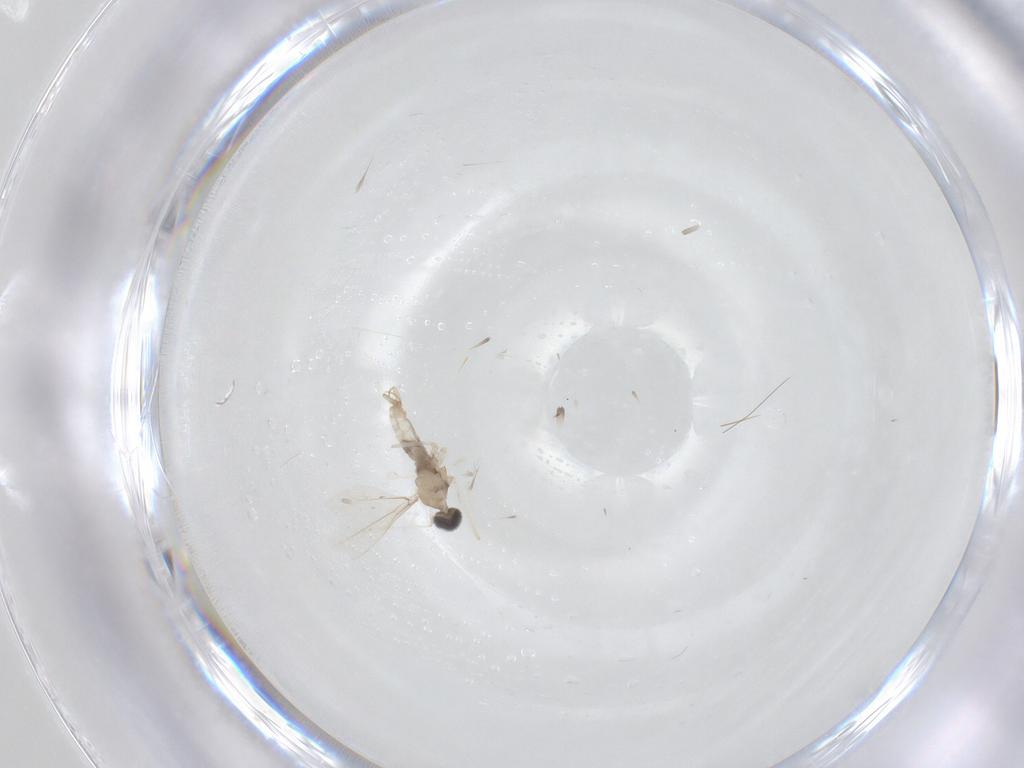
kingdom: Animalia
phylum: Arthropoda
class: Insecta
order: Diptera
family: Cecidomyiidae
